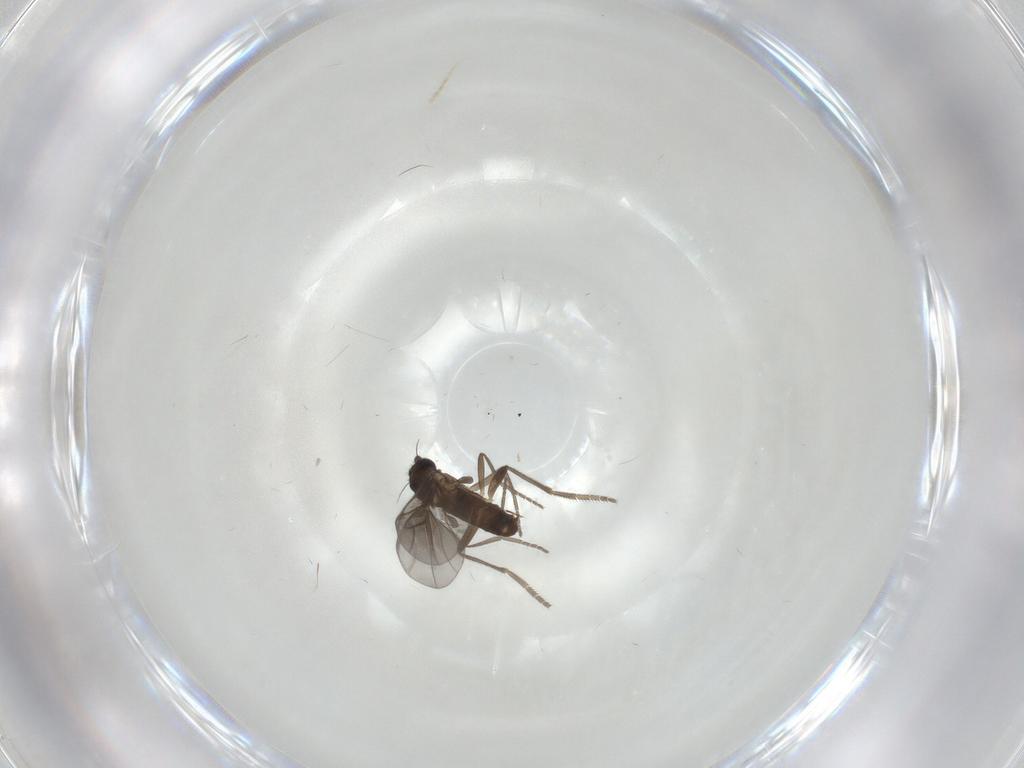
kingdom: Animalia
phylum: Arthropoda
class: Insecta
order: Diptera
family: Phoridae
